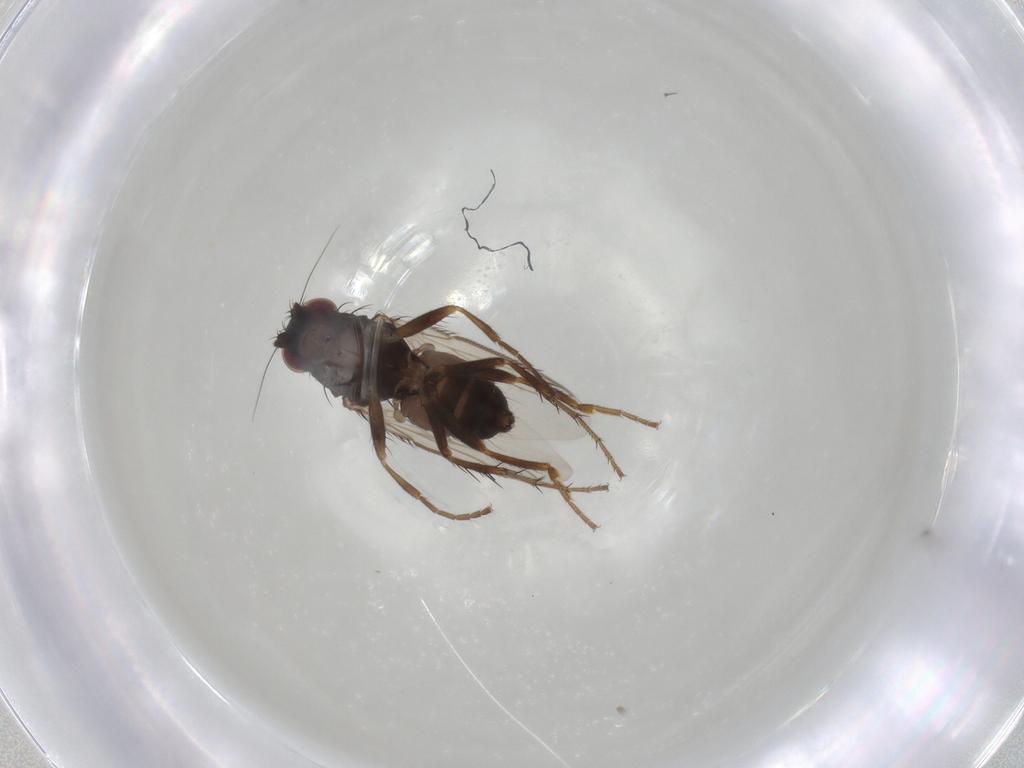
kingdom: Animalia
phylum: Arthropoda
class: Insecta
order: Diptera
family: Sphaeroceridae
